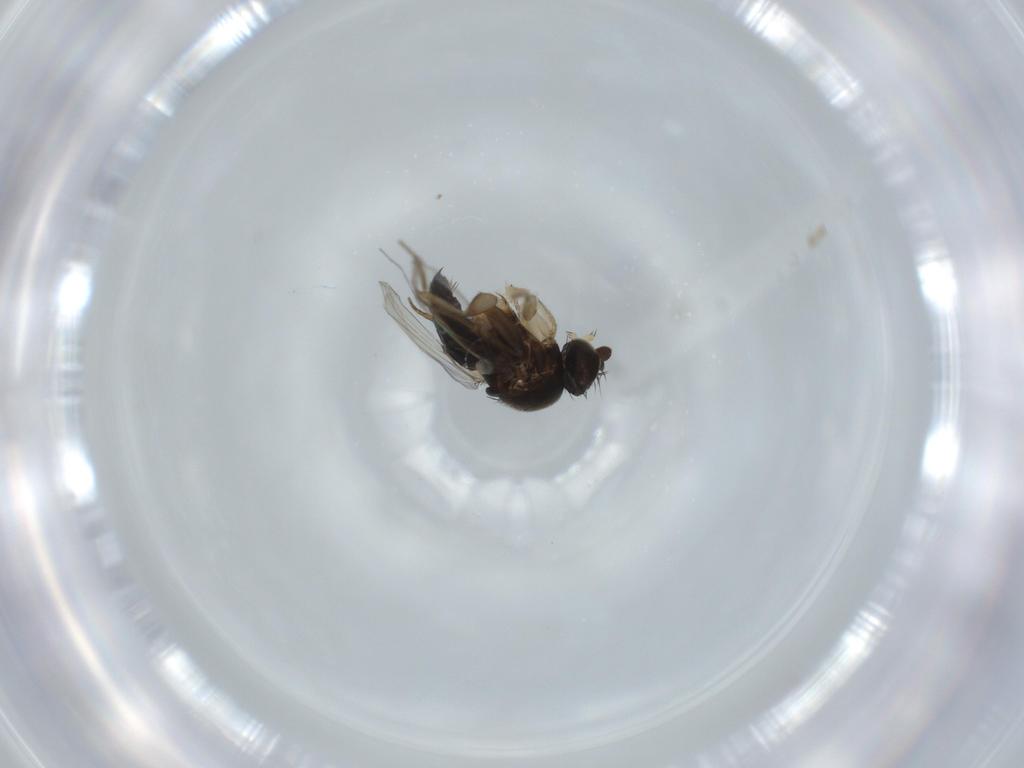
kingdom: Animalia
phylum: Arthropoda
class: Insecta
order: Diptera
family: Phoridae
